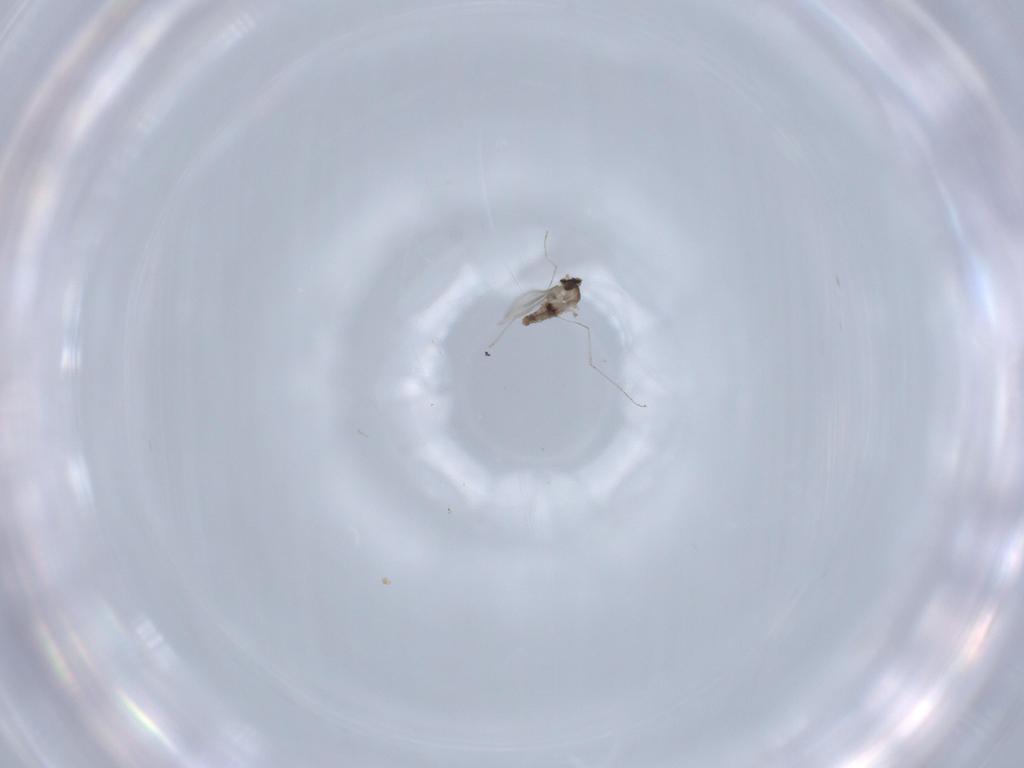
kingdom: Animalia
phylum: Arthropoda
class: Insecta
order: Diptera
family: Cecidomyiidae
